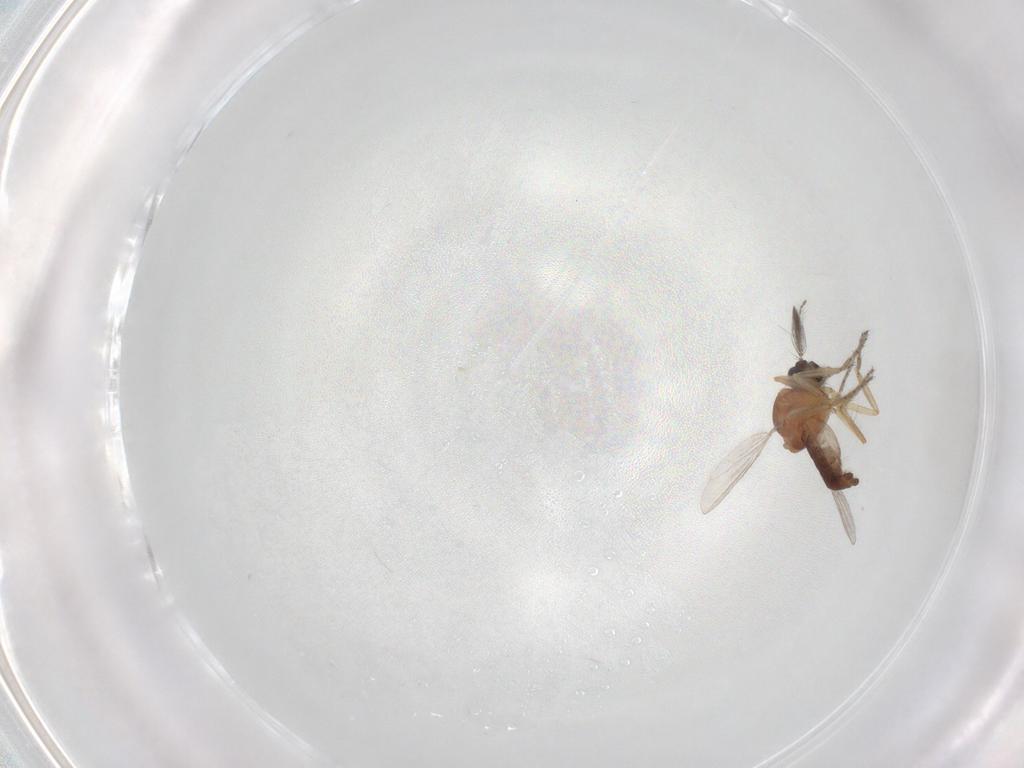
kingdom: Animalia
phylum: Arthropoda
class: Insecta
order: Diptera
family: Ceratopogonidae
